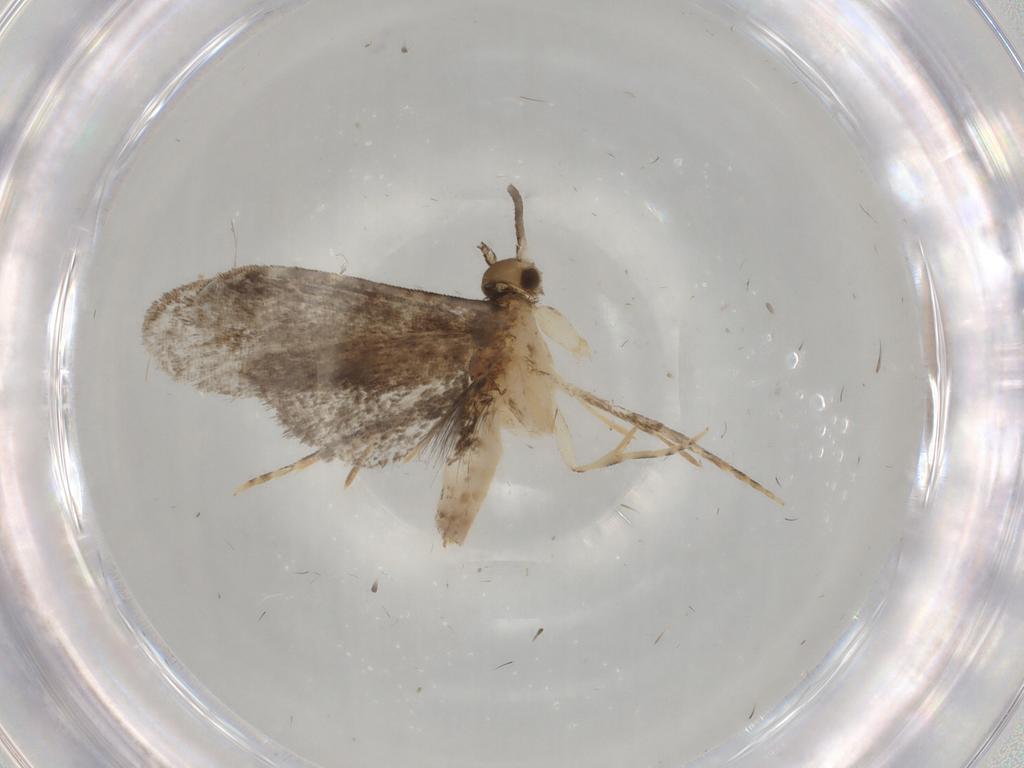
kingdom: Animalia
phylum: Arthropoda
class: Insecta
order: Lepidoptera
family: Dryadaulidae
